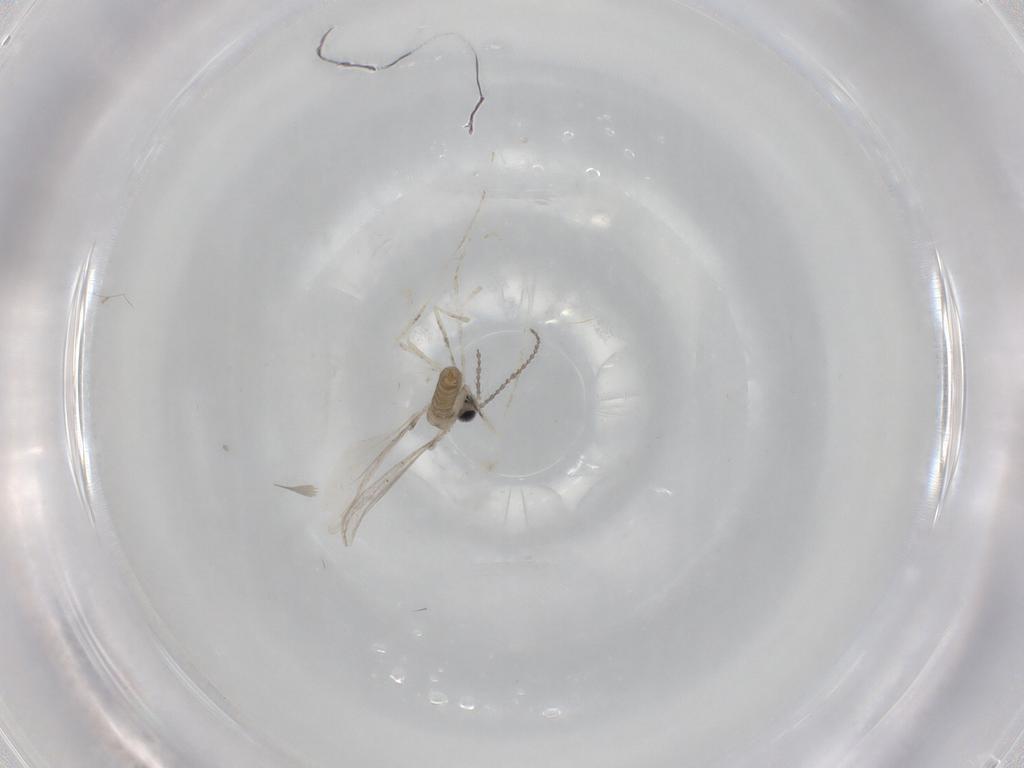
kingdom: Animalia
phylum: Arthropoda
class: Insecta
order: Diptera
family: Cecidomyiidae
